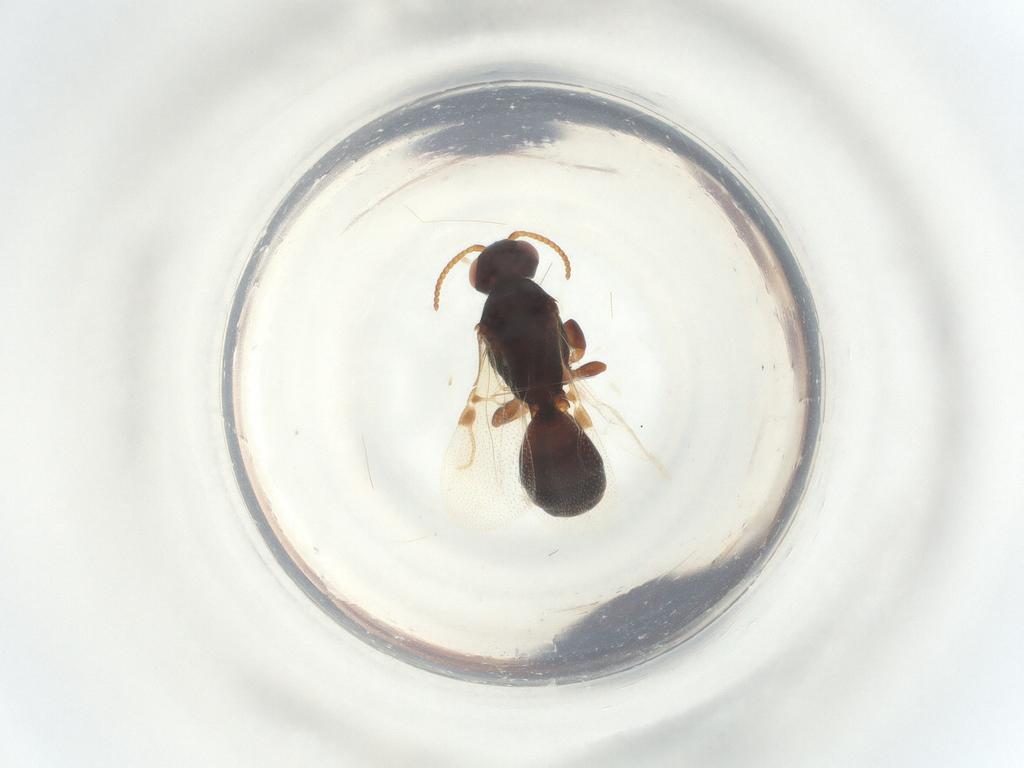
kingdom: Animalia
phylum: Arthropoda
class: Insecta
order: Hymenoptera
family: Bethylidae
